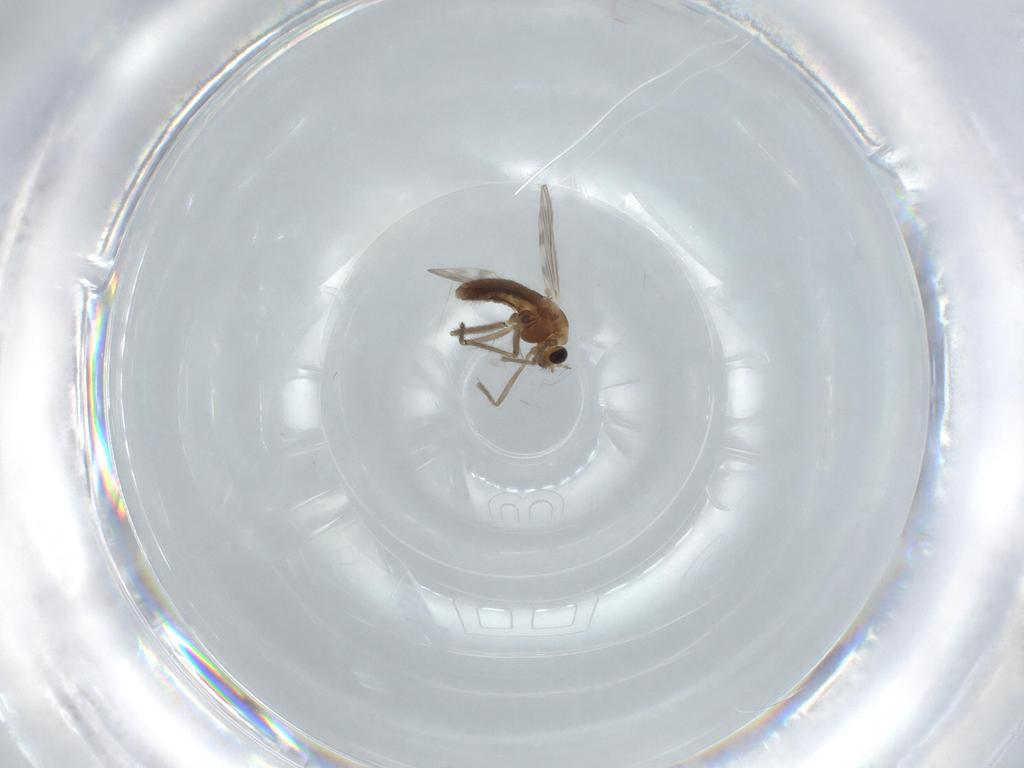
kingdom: Animalia
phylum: Arthropoda
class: Insecta
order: Diptera
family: Chironomidae
